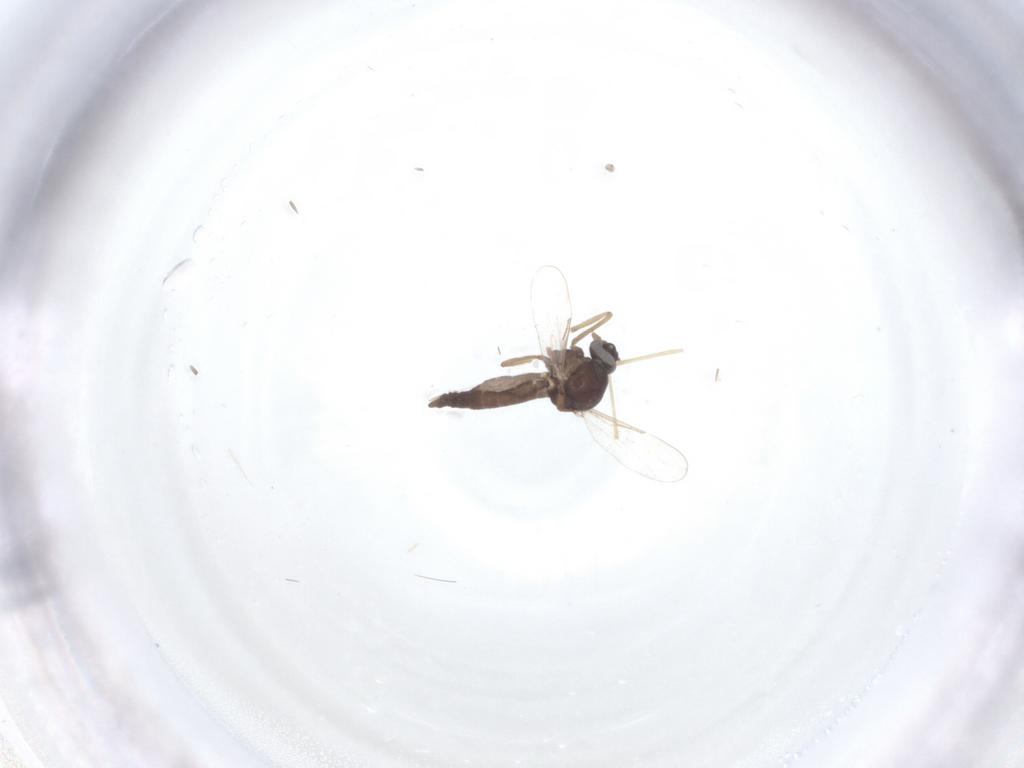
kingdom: Animalia
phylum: Arthropoda
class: Insecta
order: Diptera
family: Ceratopogonidae
